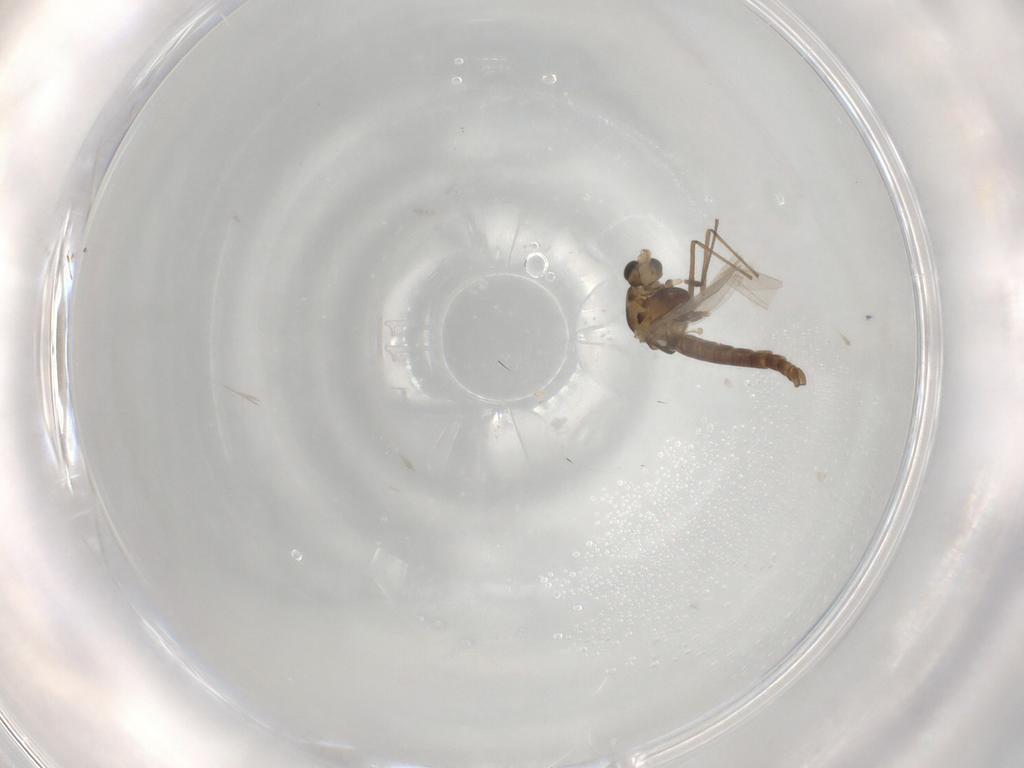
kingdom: Animalia
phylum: Arthropoda
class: Insecta
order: Diptera
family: Chironomidae
